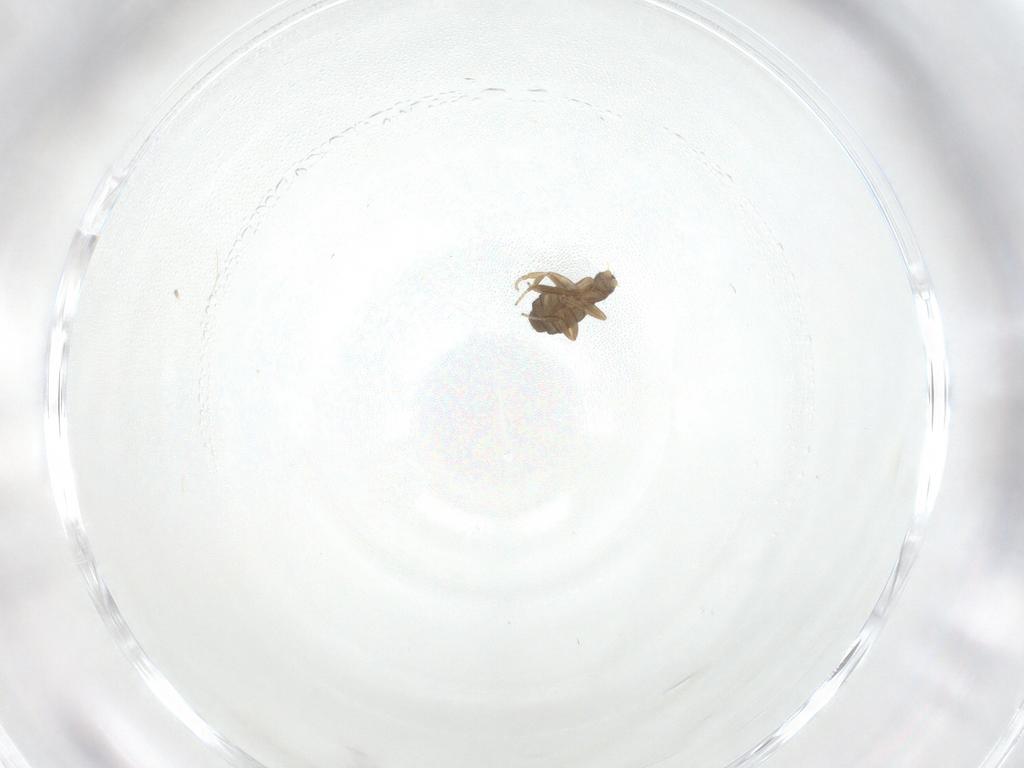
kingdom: Animalia
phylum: Arthropoda
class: Insecta
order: Diptera
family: Phoridae
